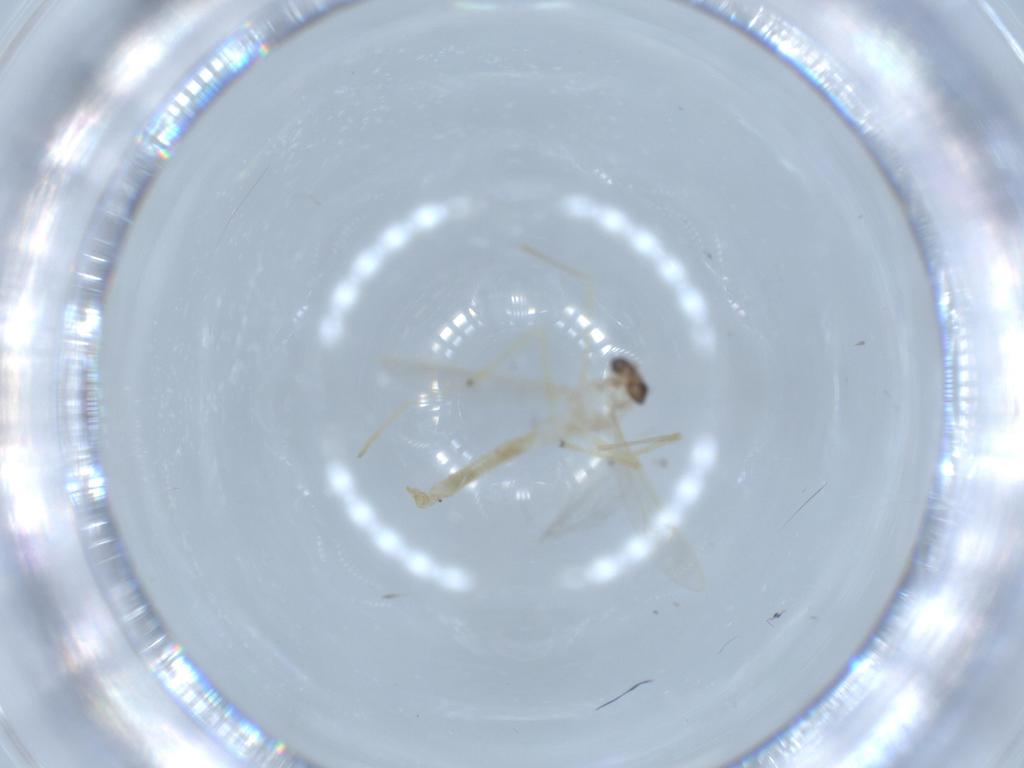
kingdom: Animalia
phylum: Arthropoda
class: Insecta
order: Diptera
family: Chironomidae
